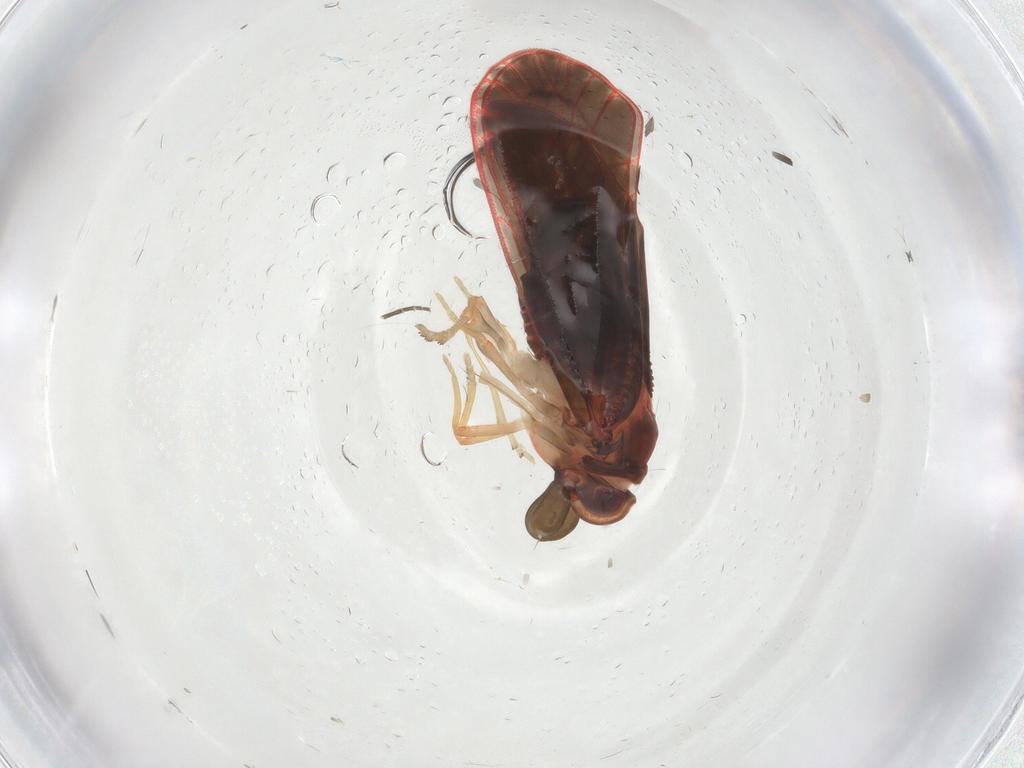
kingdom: Animalia
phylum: Arthropoda
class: Insecta
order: Hemiptera
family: Derbidae
